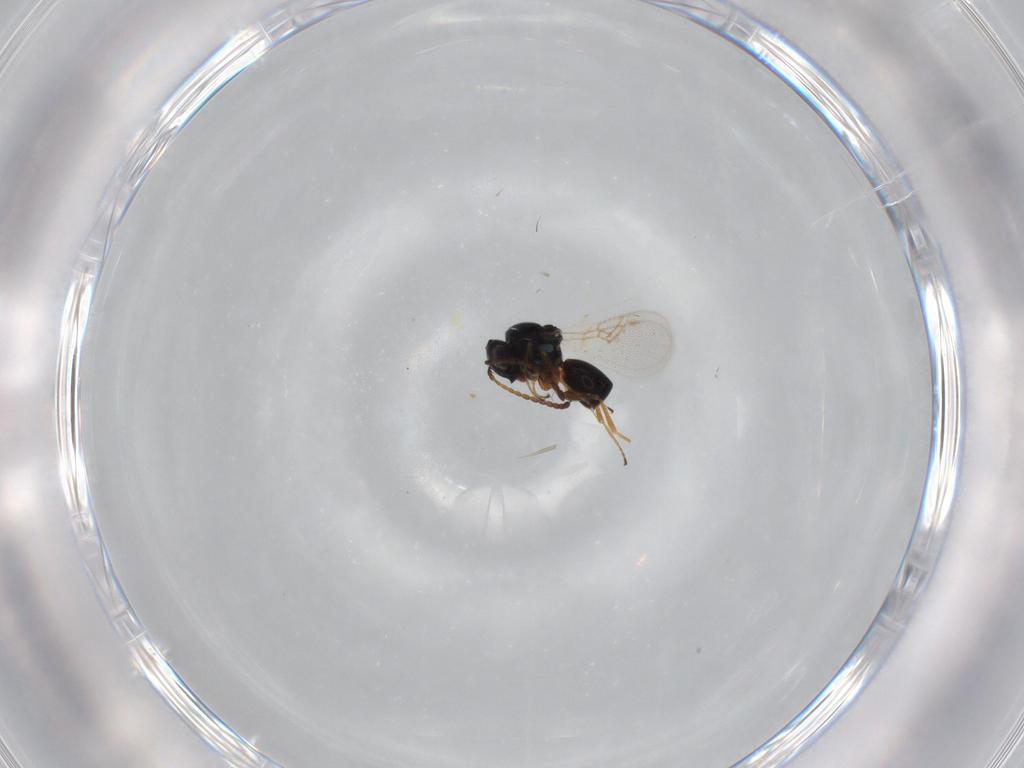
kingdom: Animalia
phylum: Arthropoda
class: Insecta
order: Hymenoptera
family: Figitidae
